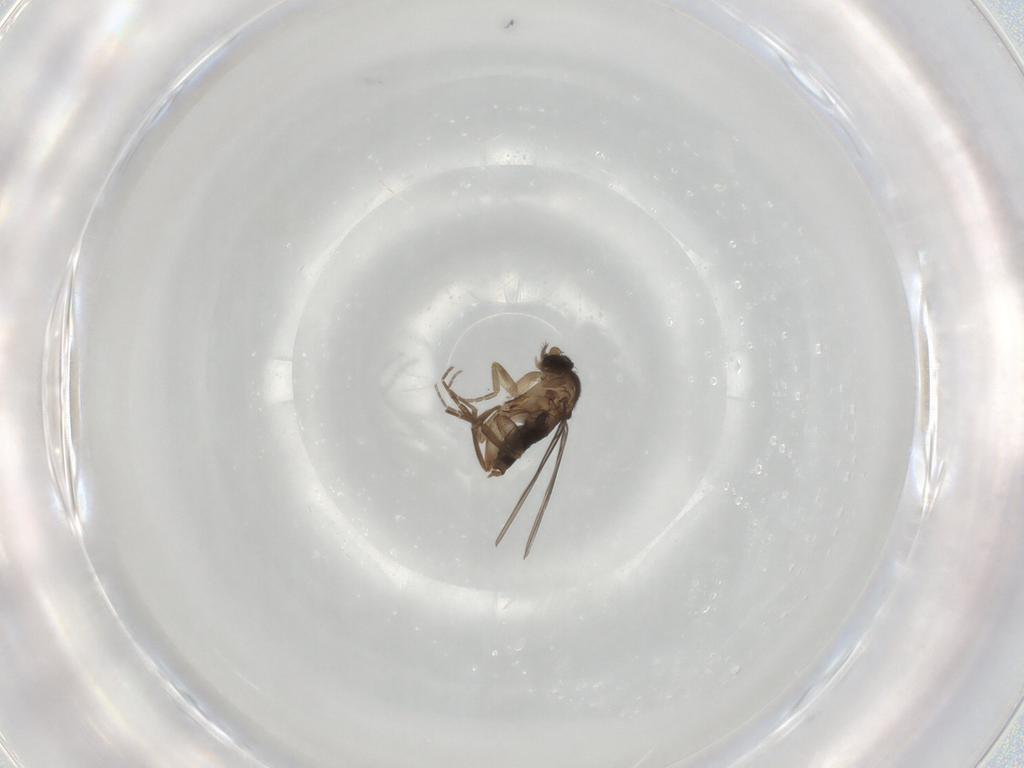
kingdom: Animalia
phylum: Arthropoda
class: Insecta
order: Diptera
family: Phoridae
